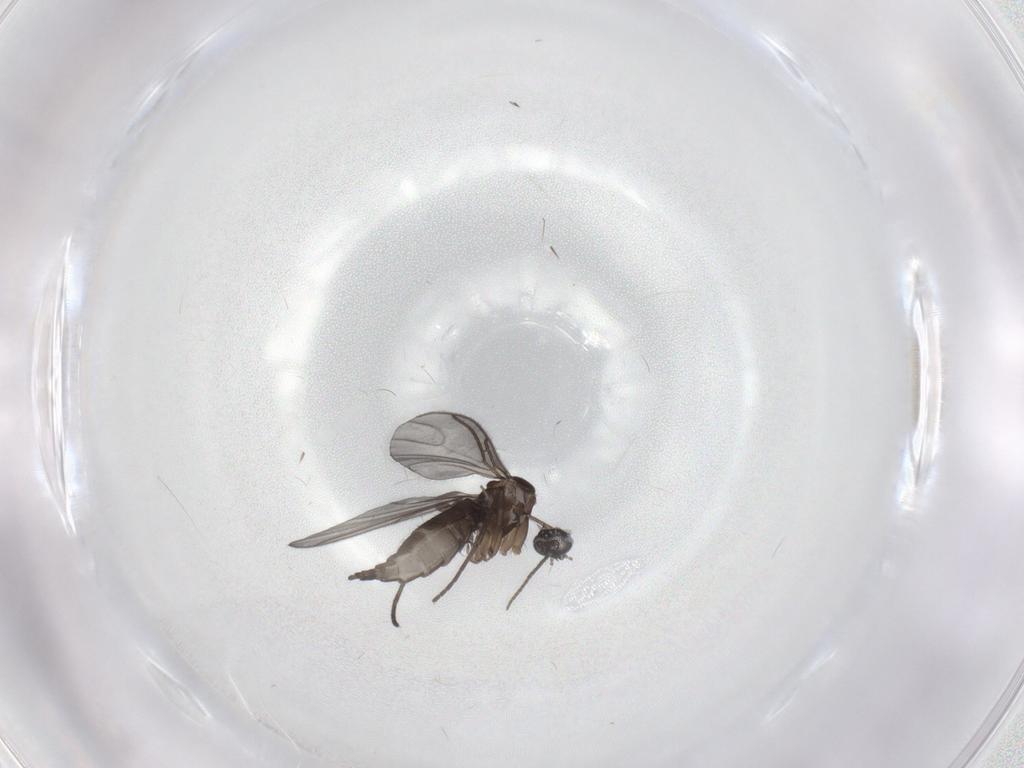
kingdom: Animalia
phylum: Arthropoda
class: Insecta
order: Diptera
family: Sciaridae
